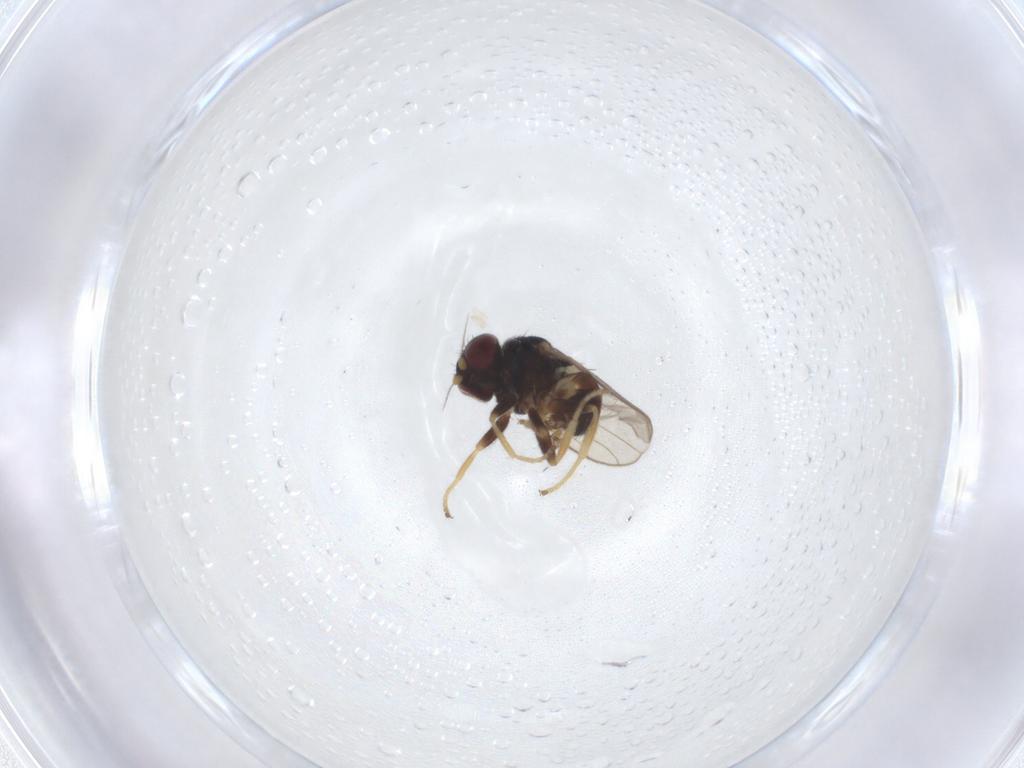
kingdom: Animalia
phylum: Arthropoda
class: Insecta
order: Diptera
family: Chloropidae
